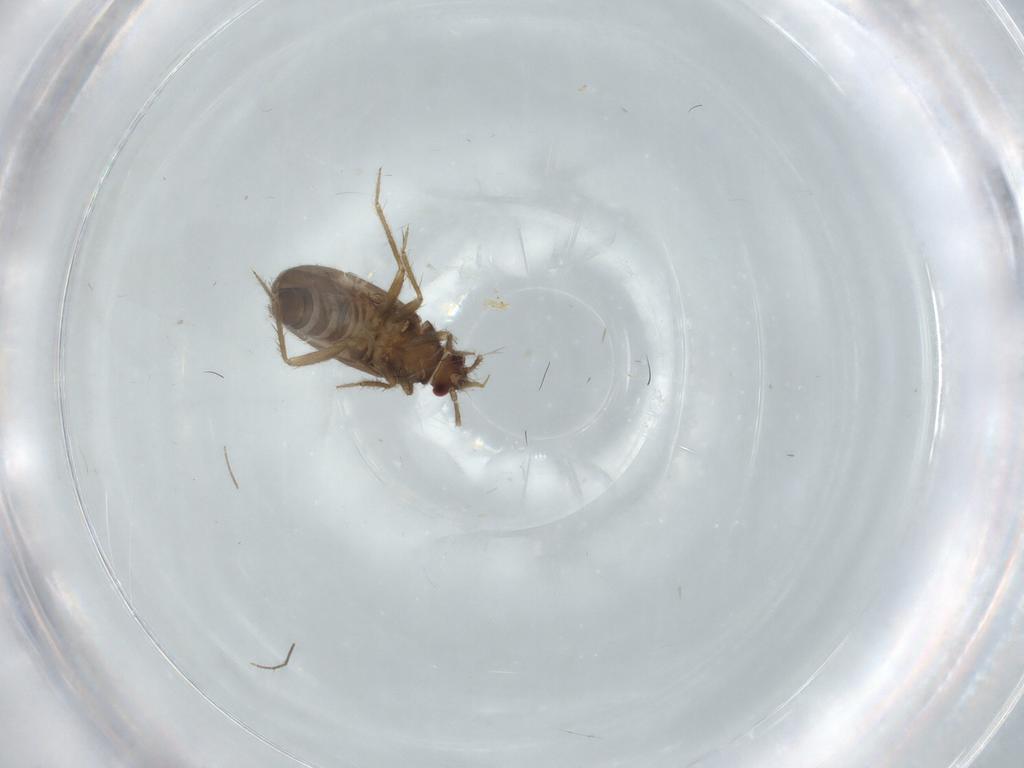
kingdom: Animalia
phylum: Arthropoda
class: Insecta
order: Hemiptera
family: Ceratocombidae
